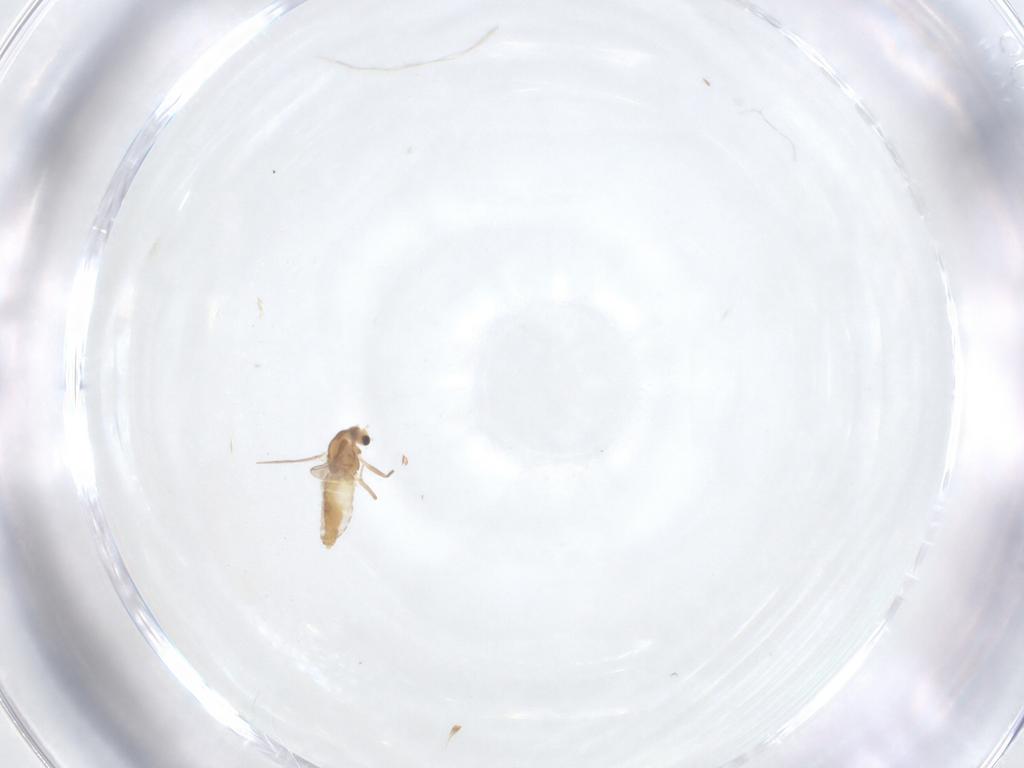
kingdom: Animalia
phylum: Arthropoda
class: Insecta
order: Diptera
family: Chironomidae
